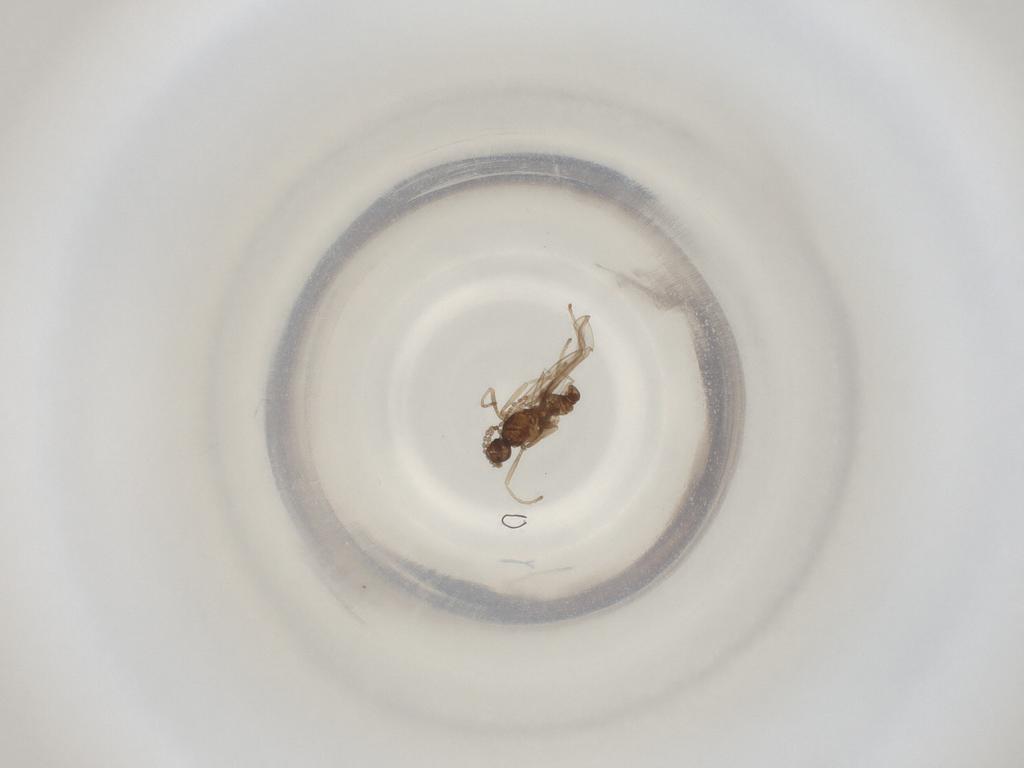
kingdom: Animalia
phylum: Arthropoda
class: Insecta
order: Diptera
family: Cecidomyiidae
